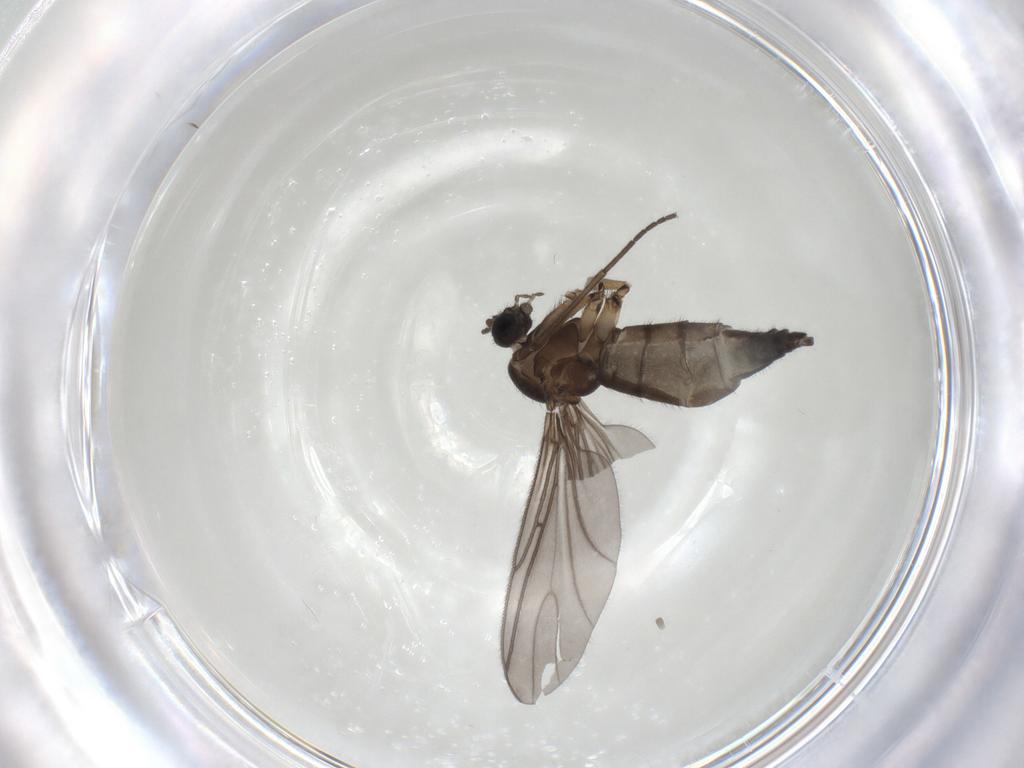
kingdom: Animalia
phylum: Arthropoda
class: Insecta
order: Diptera
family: Sciaridae
